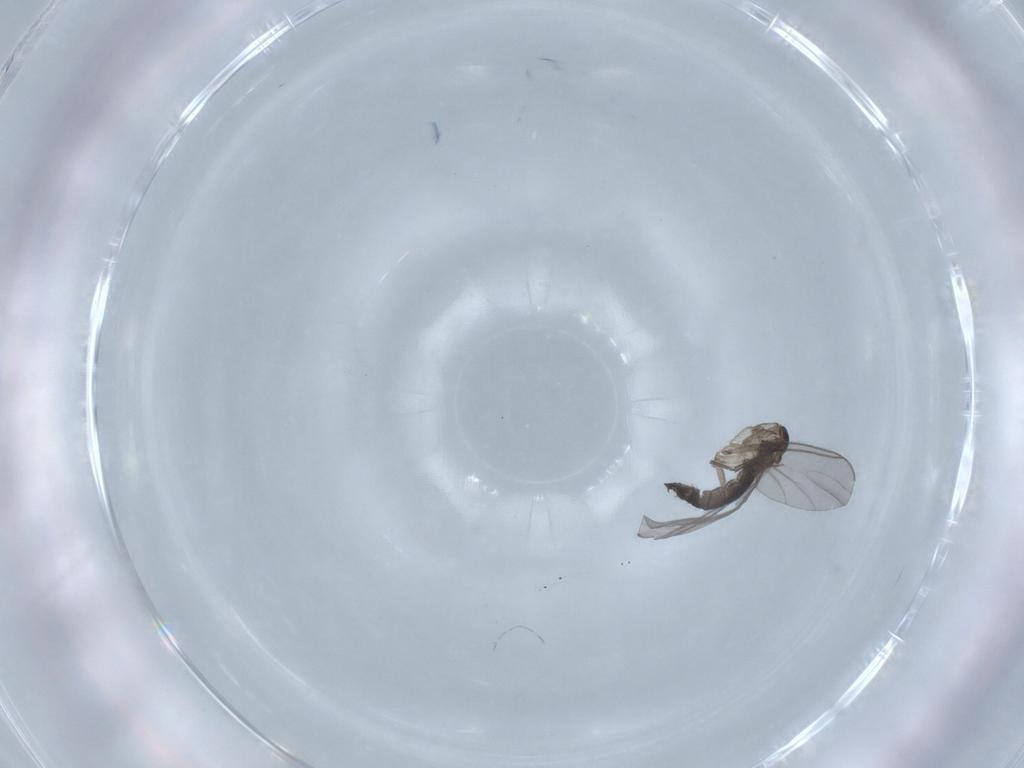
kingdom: Animalia
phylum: Arthropoda
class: Insecta
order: Diptera
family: Sciaridae
